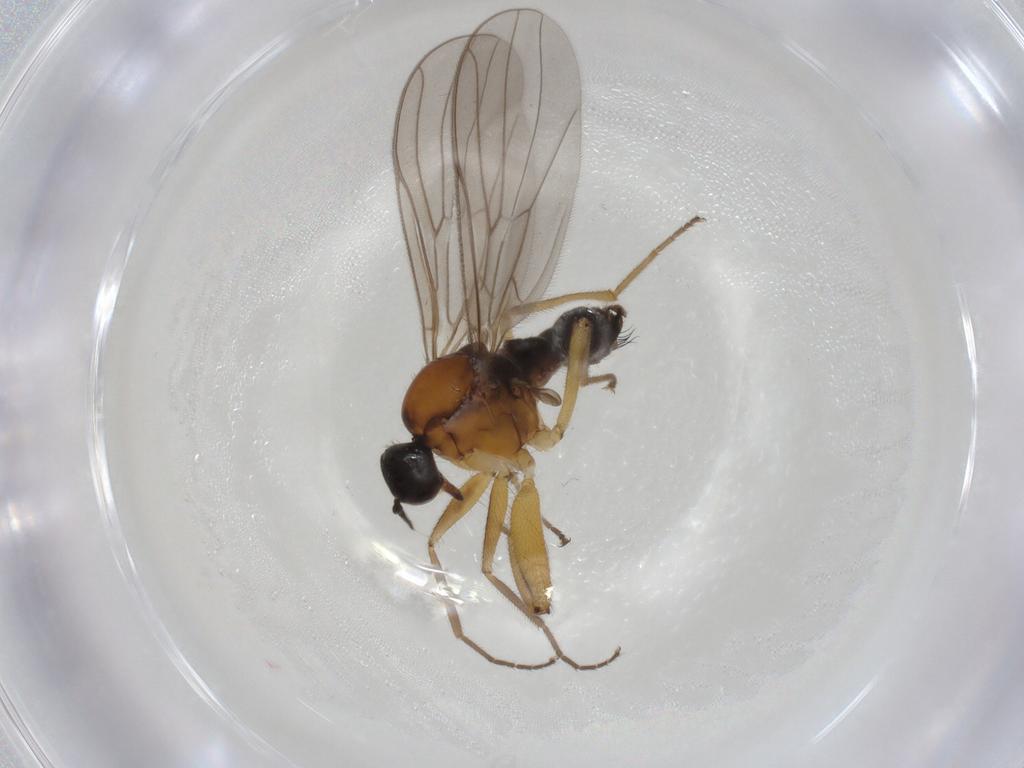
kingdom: Animalia
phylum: Arthropoda
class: Insecta
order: Diptera
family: Hybotidae
